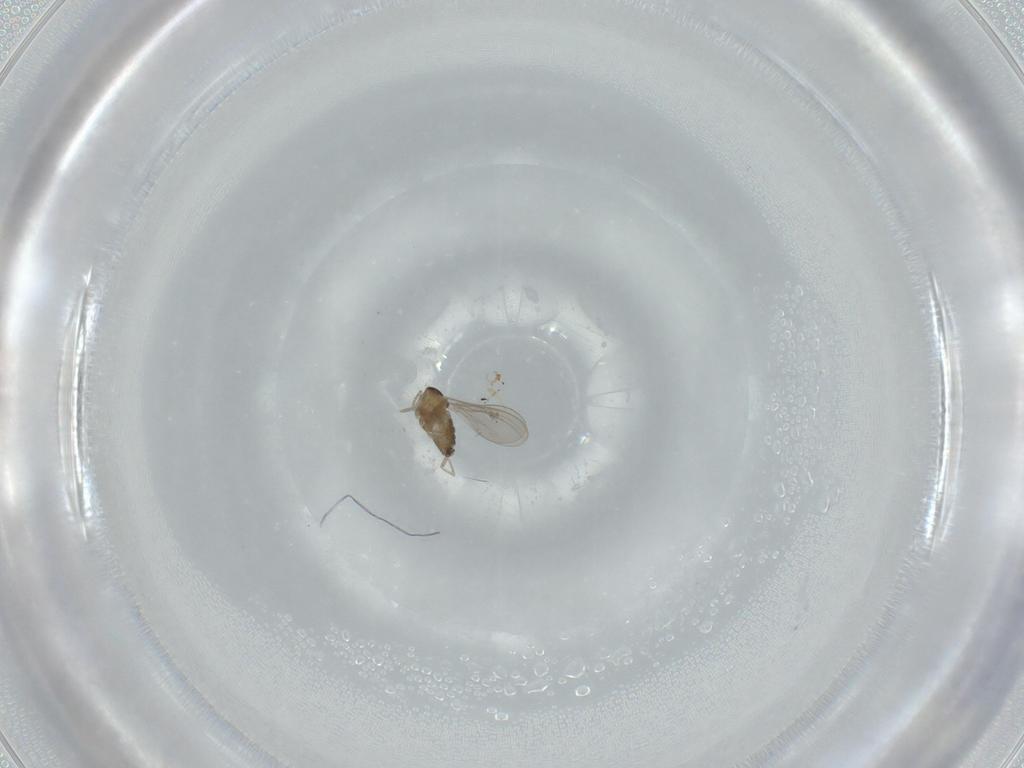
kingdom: Animalia
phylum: Arthropoda
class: Insecta
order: Diptera
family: Cecidomyiidae
